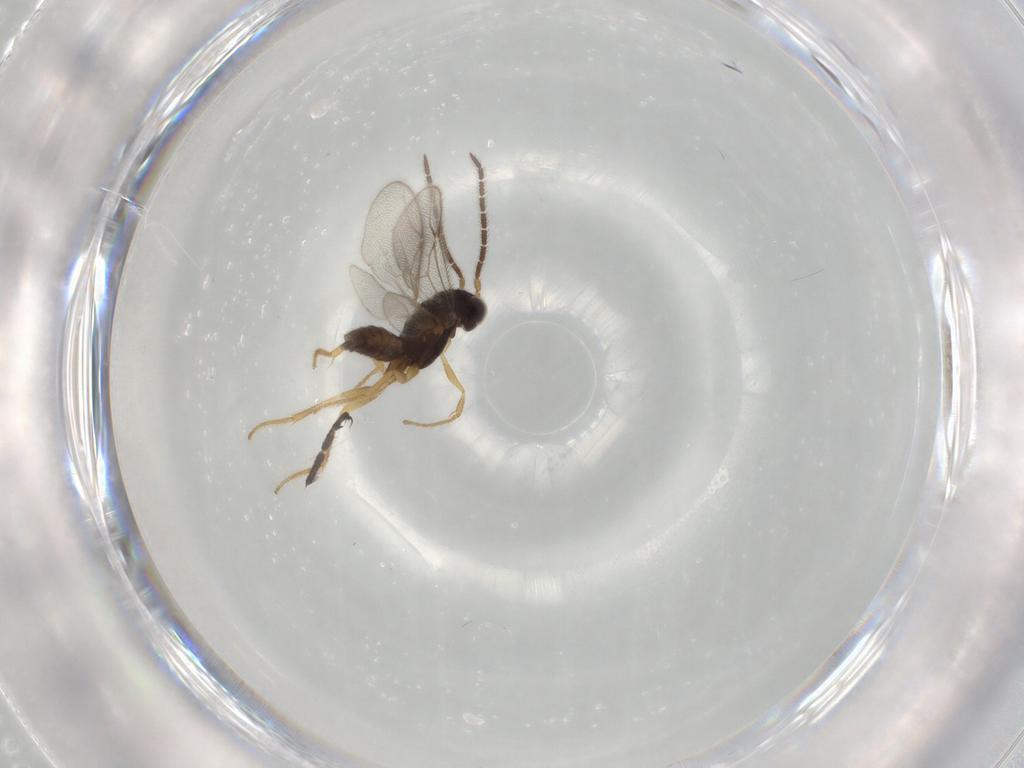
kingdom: Animalia
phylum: Arthropoda
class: Insecta
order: Hymenoptera
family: Dryinidae
